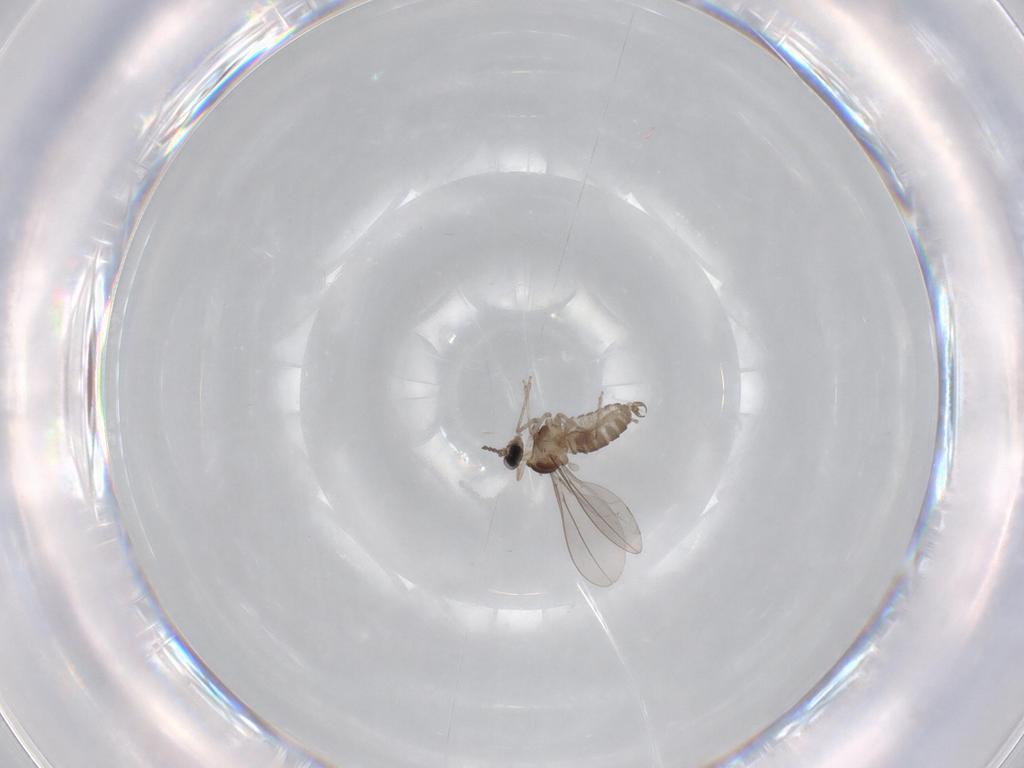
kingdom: Animalia
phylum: Arthropoda
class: Insecta
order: Diptera
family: Cecidomyiidae
